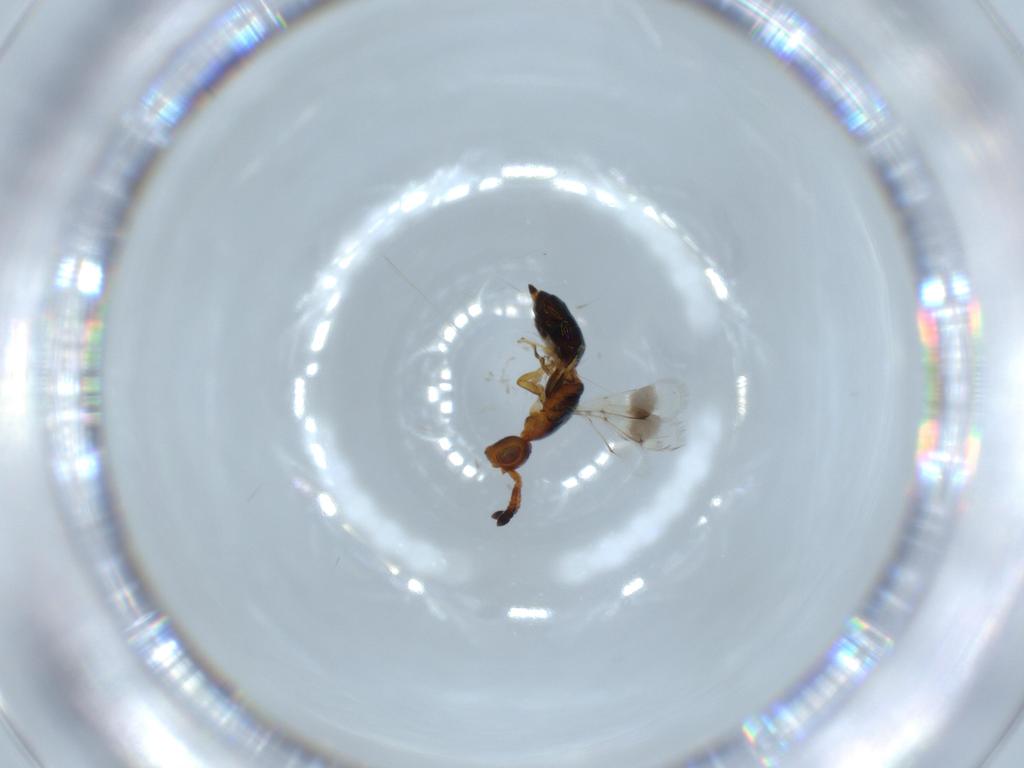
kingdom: Animalia
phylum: Arthropoda
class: Insecta
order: Hymenoptera
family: Figitidae
